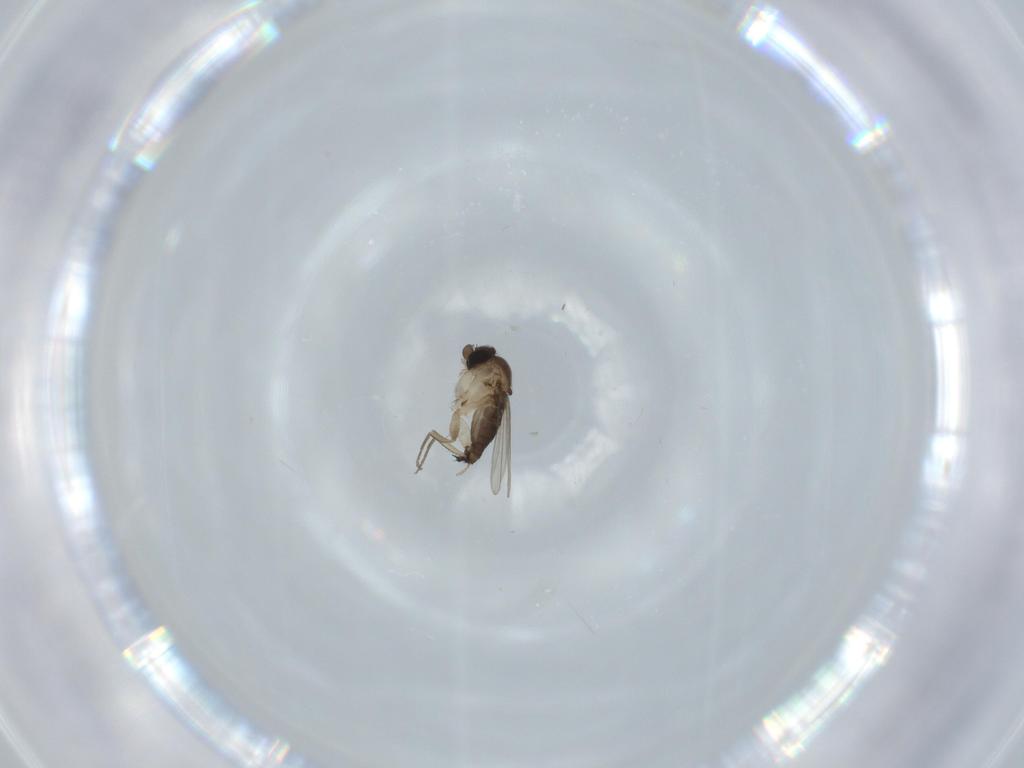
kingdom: Animalia
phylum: Arthropoda
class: Insecta
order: Diptera
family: Phoridae
